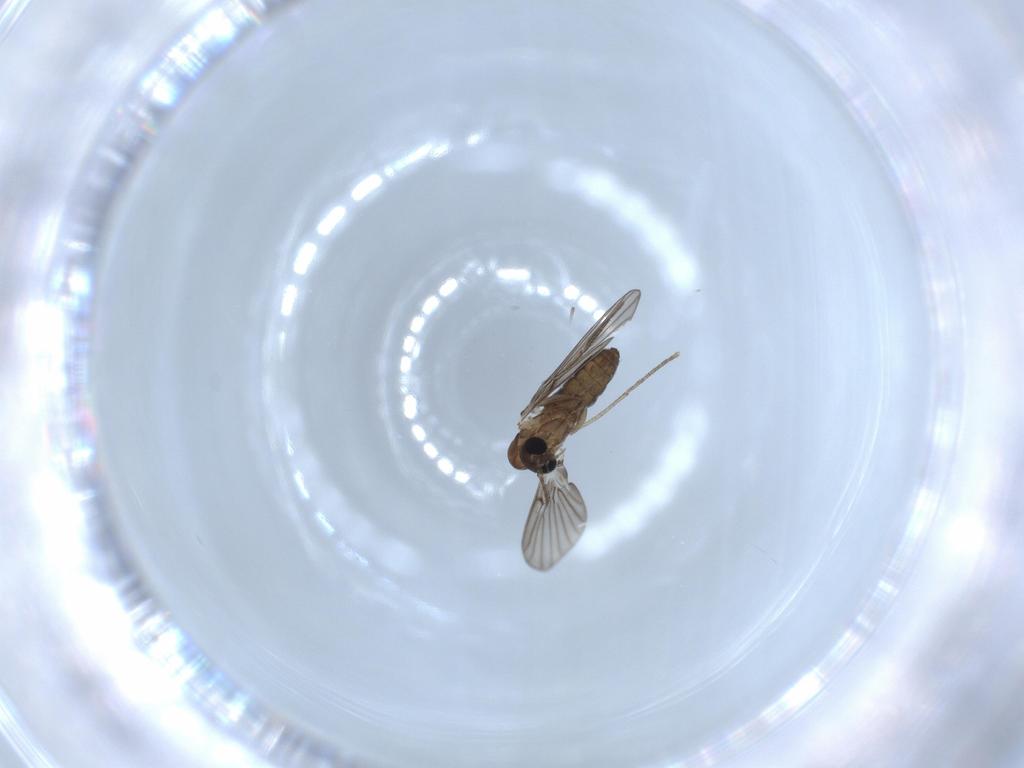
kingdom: Animalia
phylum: Arthropoda
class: Insecta
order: Diptera
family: Psychodidae
